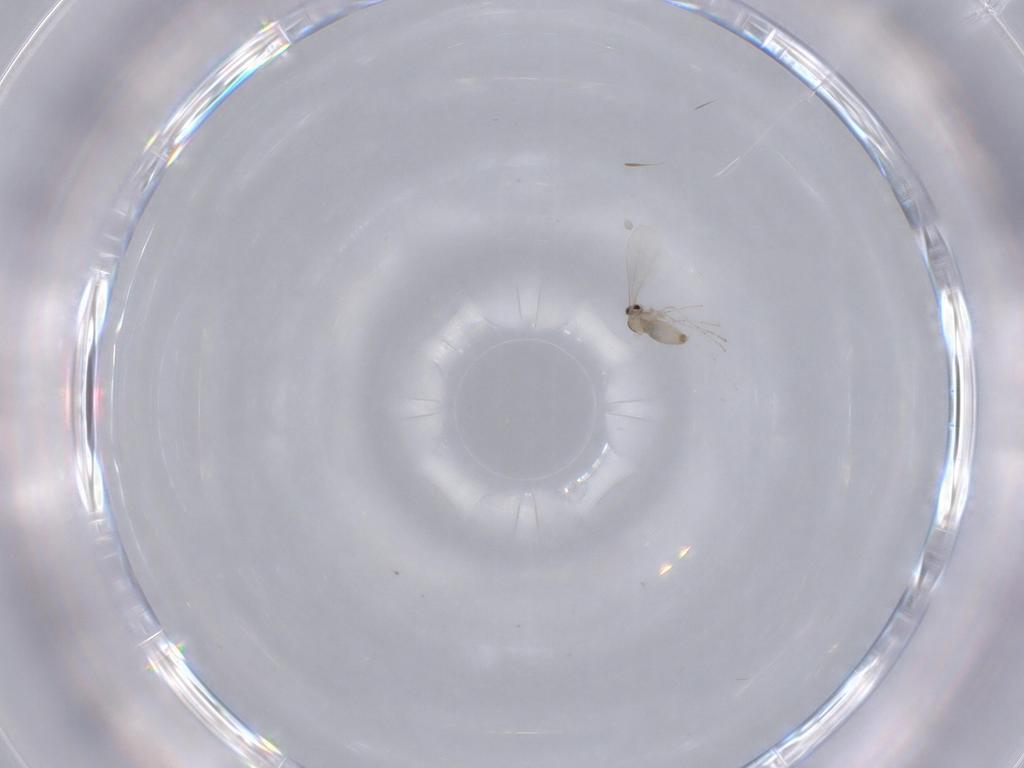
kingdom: Animalia
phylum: Arthropoda
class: Insecta
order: Diptera
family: Cecidomyiidae
